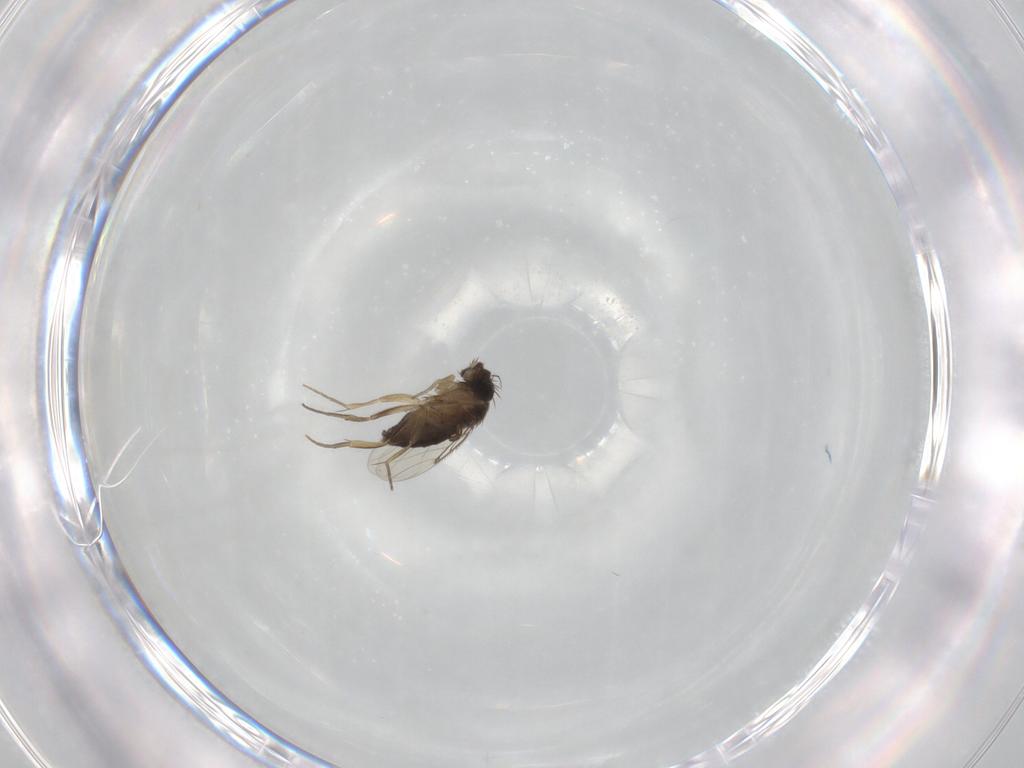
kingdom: Animalia
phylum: Arthropoda
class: Insecta
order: Diptera
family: Phoridae
